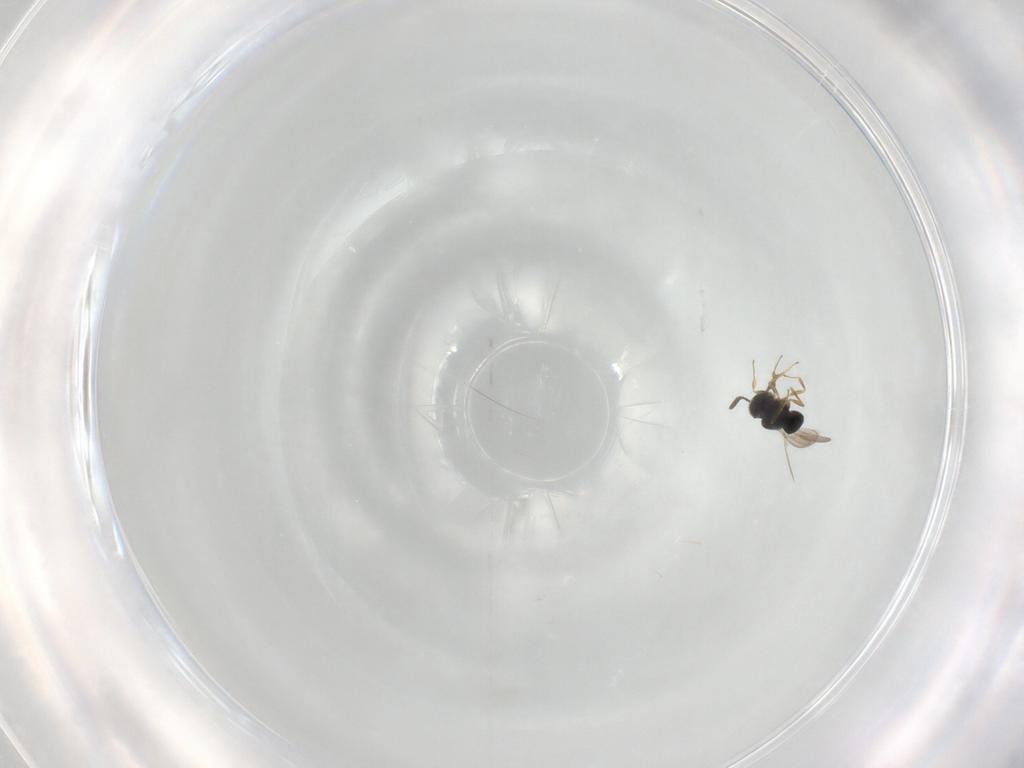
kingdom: Animalia
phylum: Arthropoda
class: Insecta
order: Hymenoptera
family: Scelionidae
